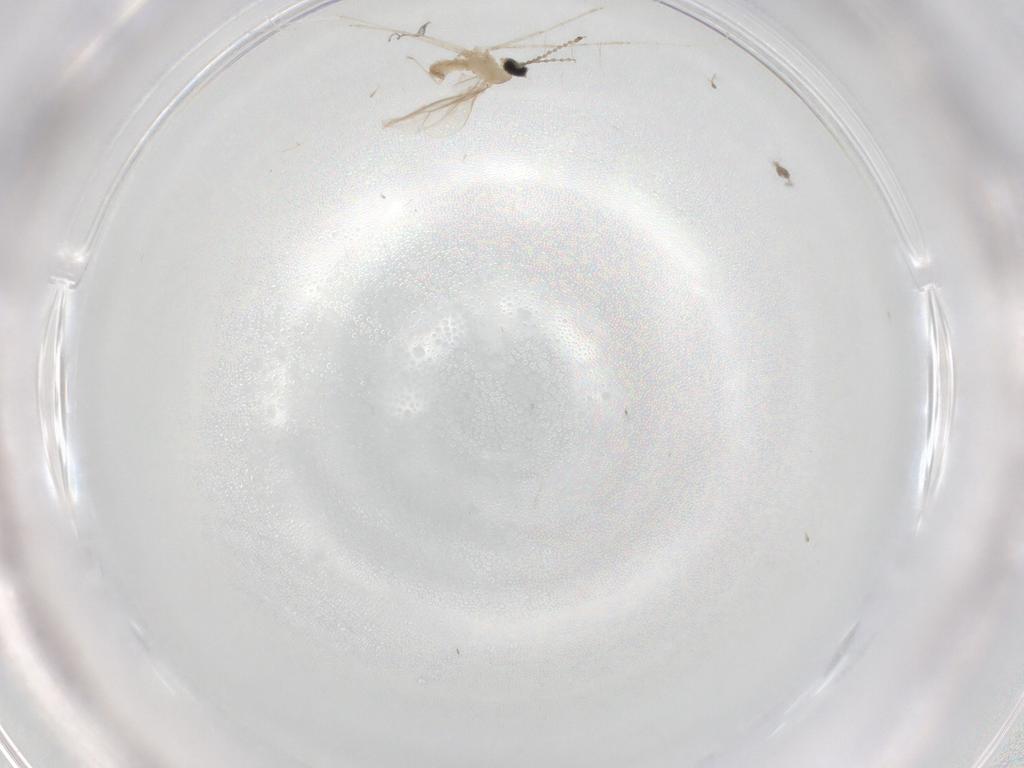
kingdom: Animalia
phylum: Arthropoda
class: Insecta
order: Diptera
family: Dolichopodidae
